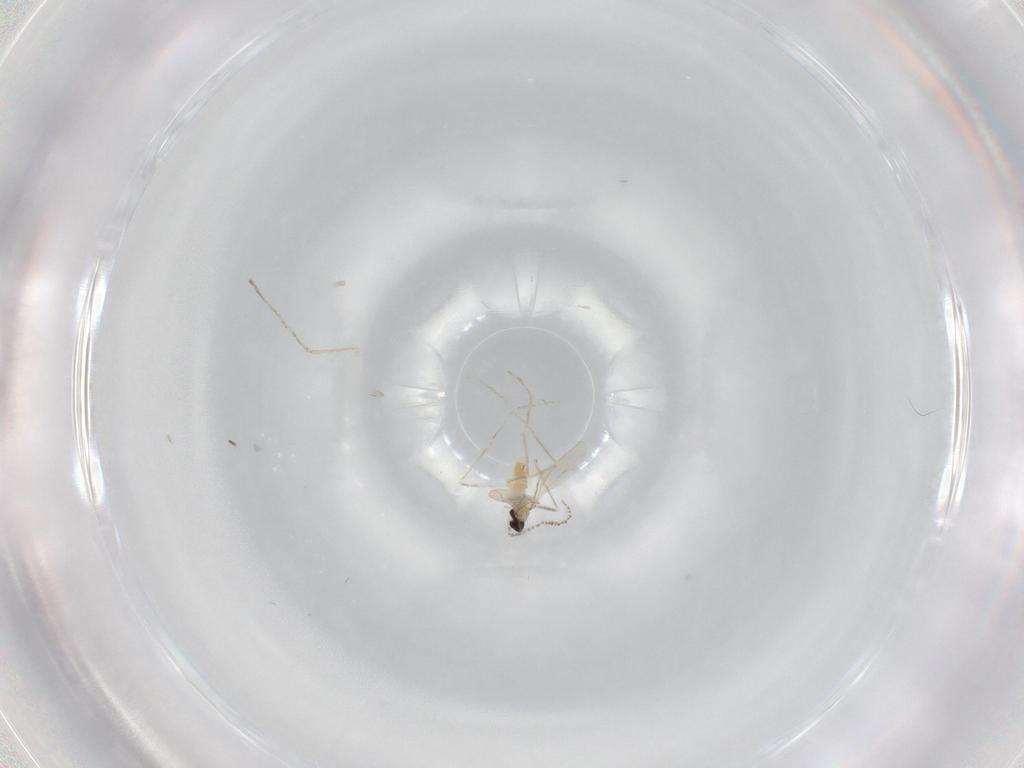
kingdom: Animalia
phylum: Arthropoda
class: Insecta
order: Diptera
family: Cecidomyiidae
